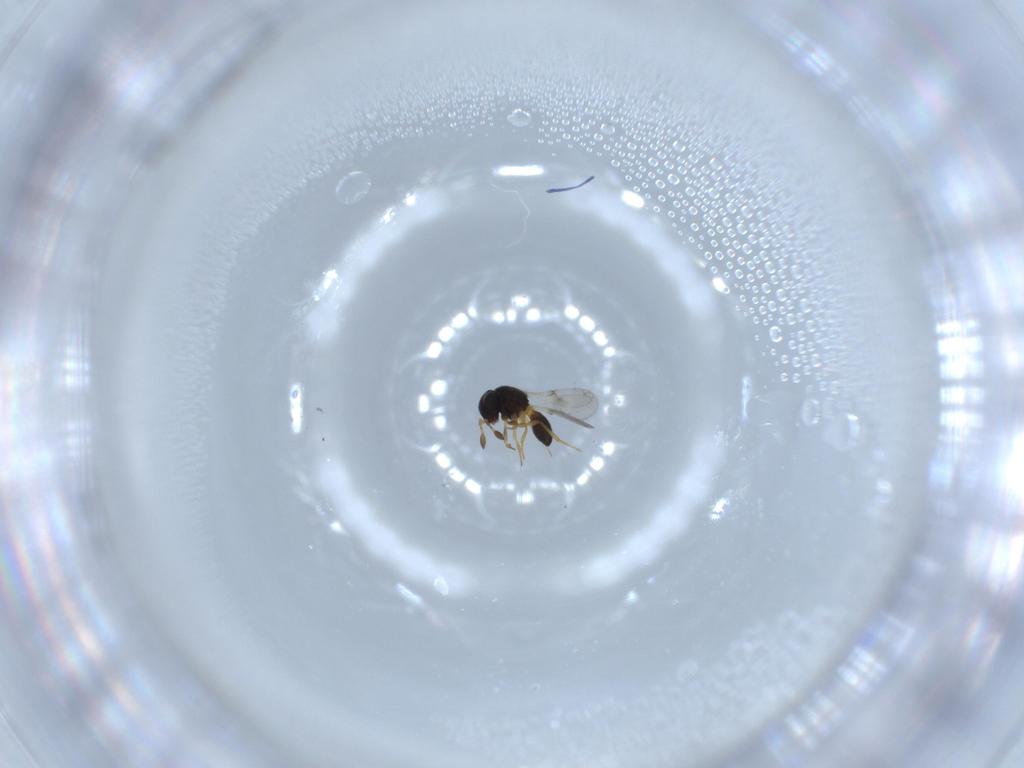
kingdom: Animalia
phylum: Arthropoda
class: Insecta
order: Hymenoptera
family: Scelionidae
